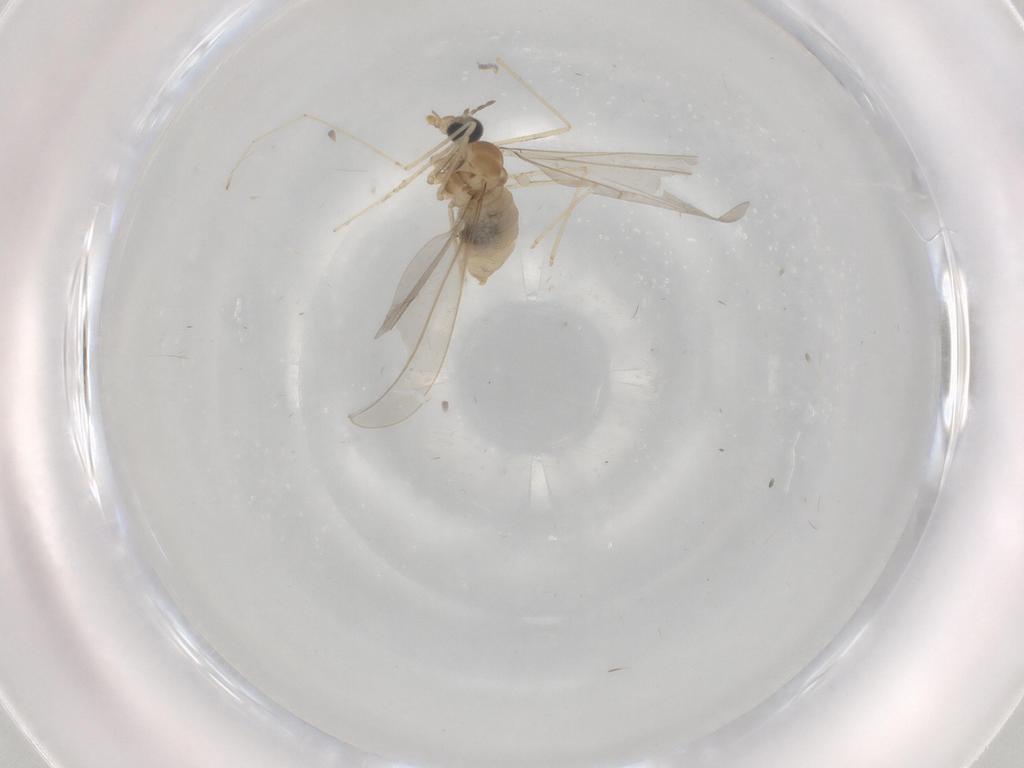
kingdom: Animalia
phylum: Arthropoda
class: Insecta
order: Diptera
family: Cecidomyiidae
